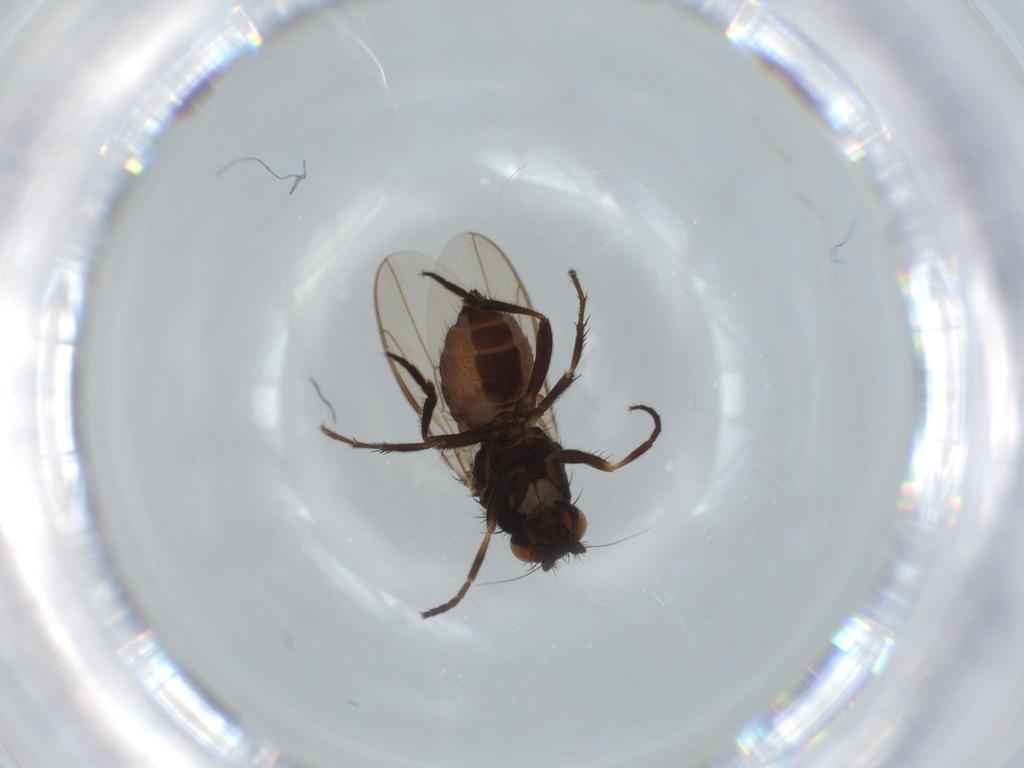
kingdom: Animalia
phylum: Arthropoda
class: Insecta
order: Diptera
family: Sphaeroceridae
